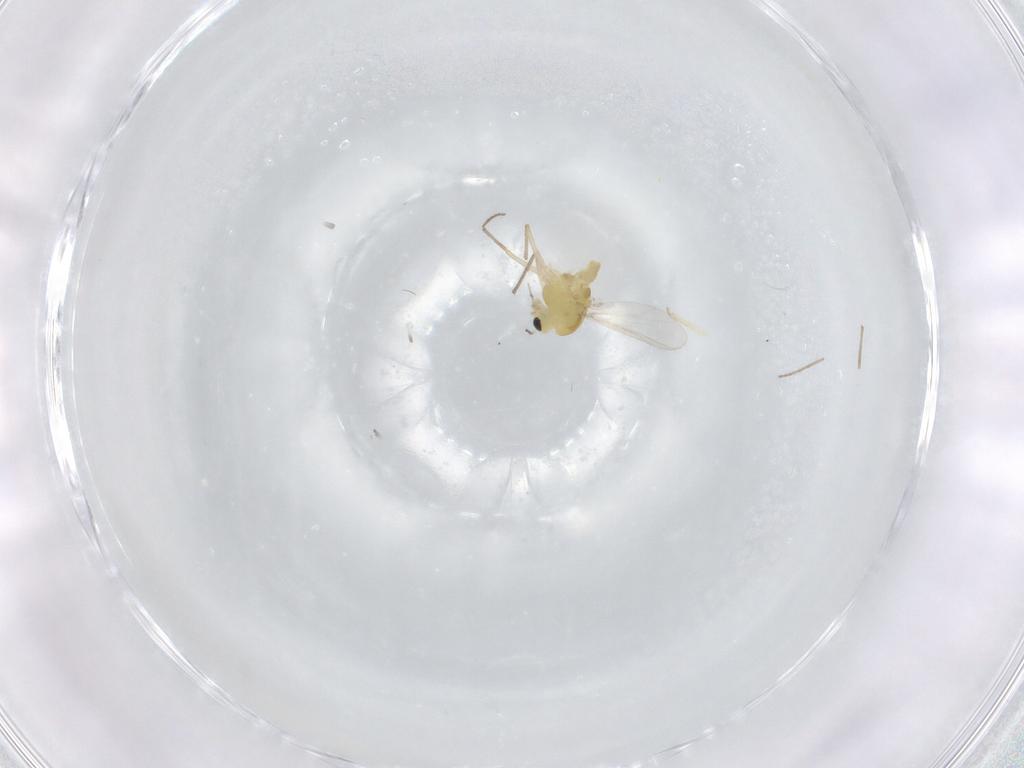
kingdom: Animalia
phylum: Arthropoda
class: Insecta
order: Diptera
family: Chironomidae
